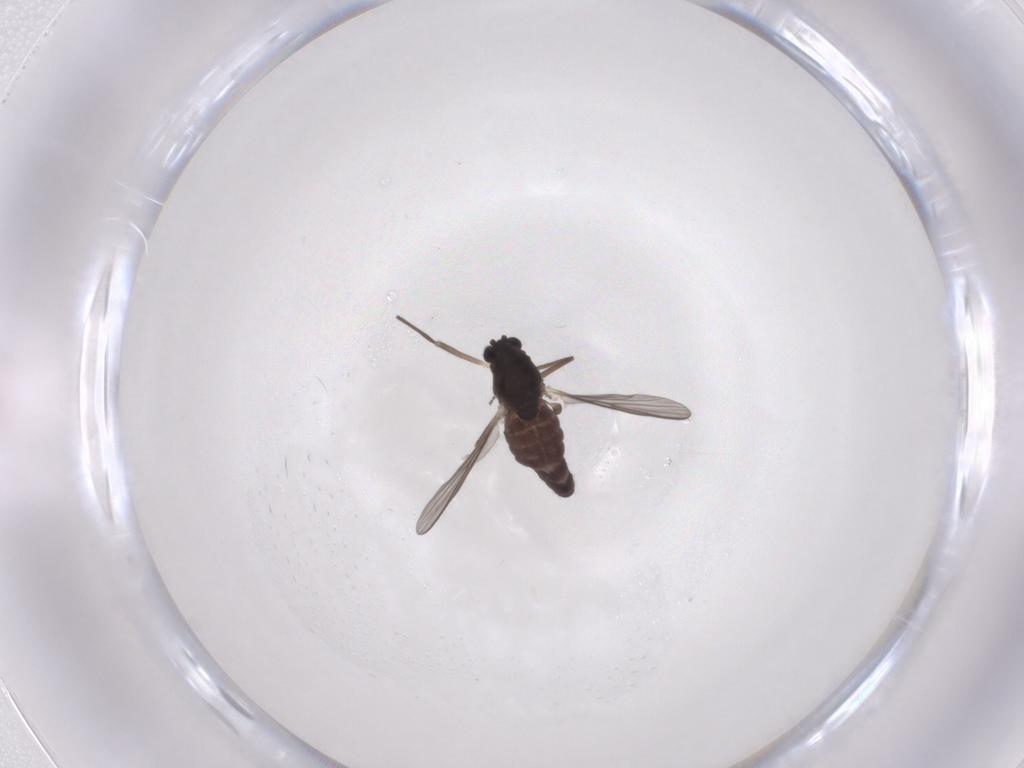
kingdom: Animalia
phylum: Arthropoda
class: Insecta
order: Diptera
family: Chironomidae
